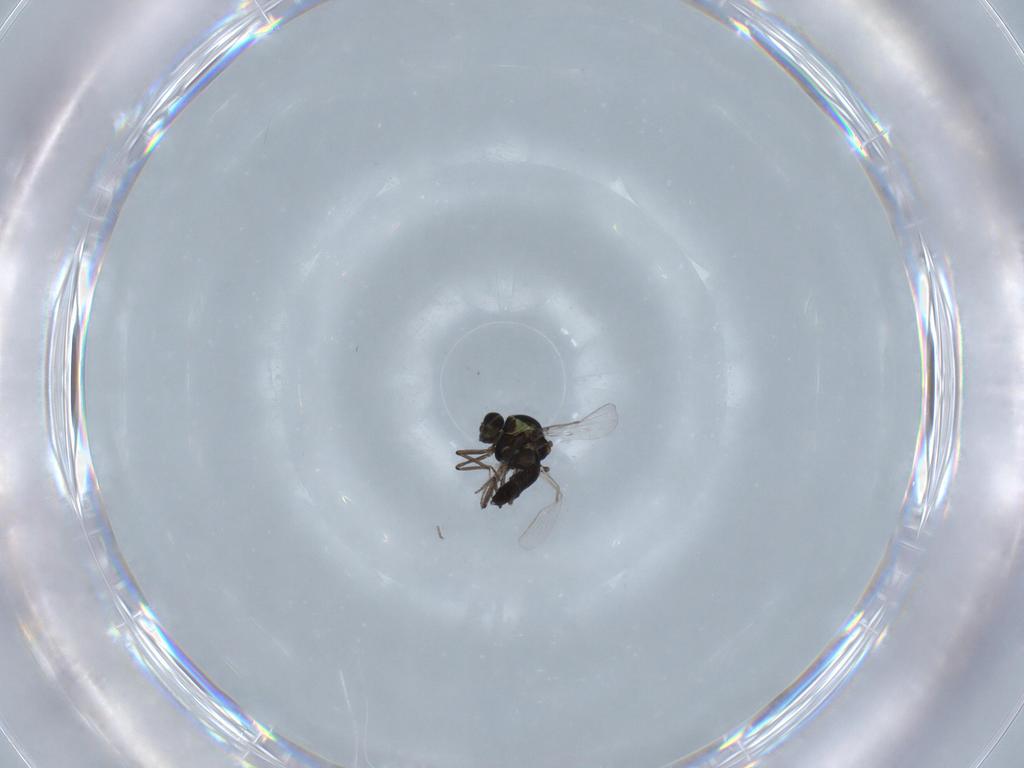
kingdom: Animalia
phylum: Arthropoda
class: Insecta
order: Diptera
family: Ceratopogonidae
